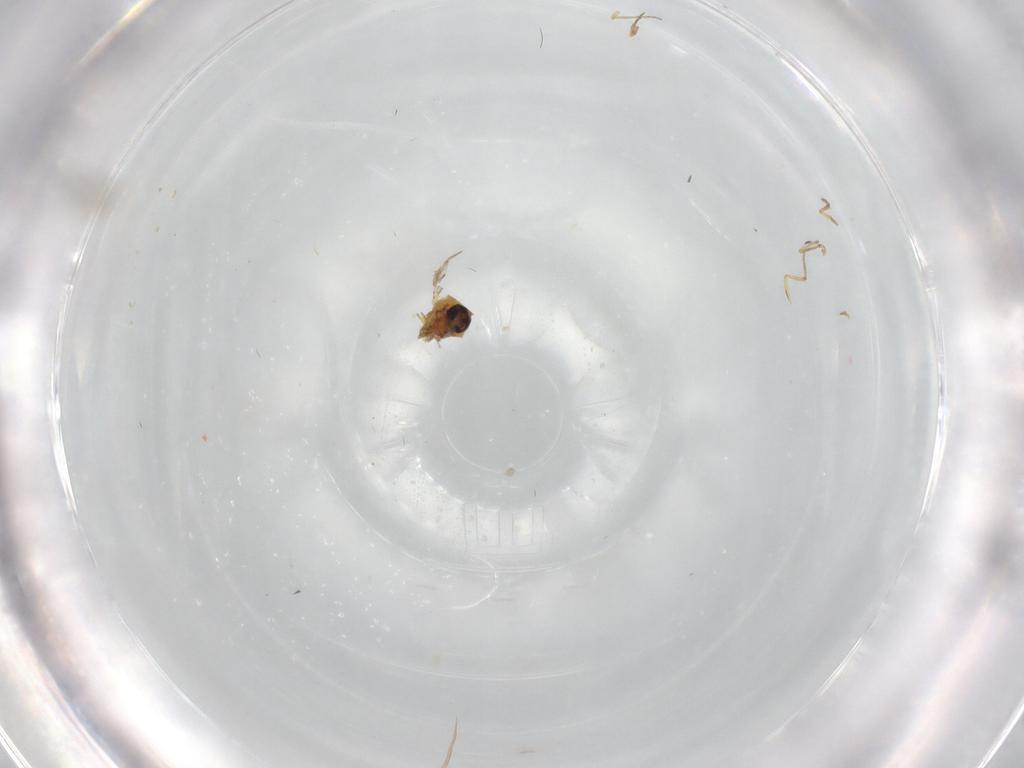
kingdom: Animalia
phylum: Arthropoda
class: Insecta
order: Diptera
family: Ceratopogonidae
